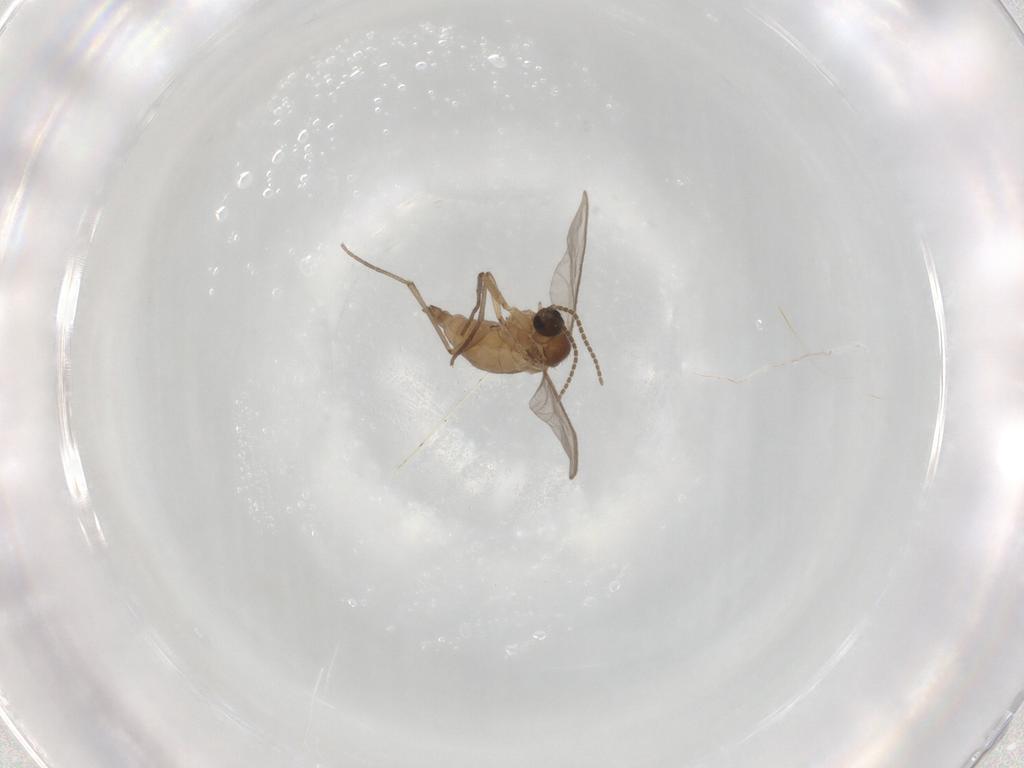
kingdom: Animalia
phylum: Arthropoda
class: Insecta
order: Diptera
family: Sciaridae
